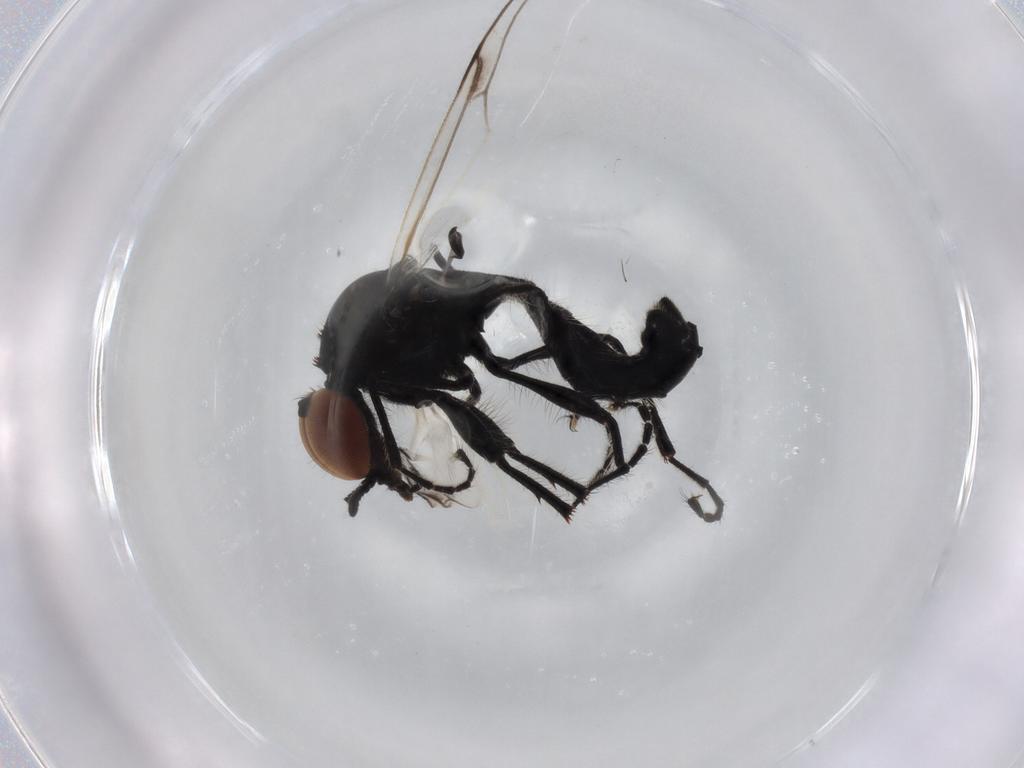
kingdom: Animalia
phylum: Arthropoda
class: Insecta
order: Diptera
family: Bibionidae
